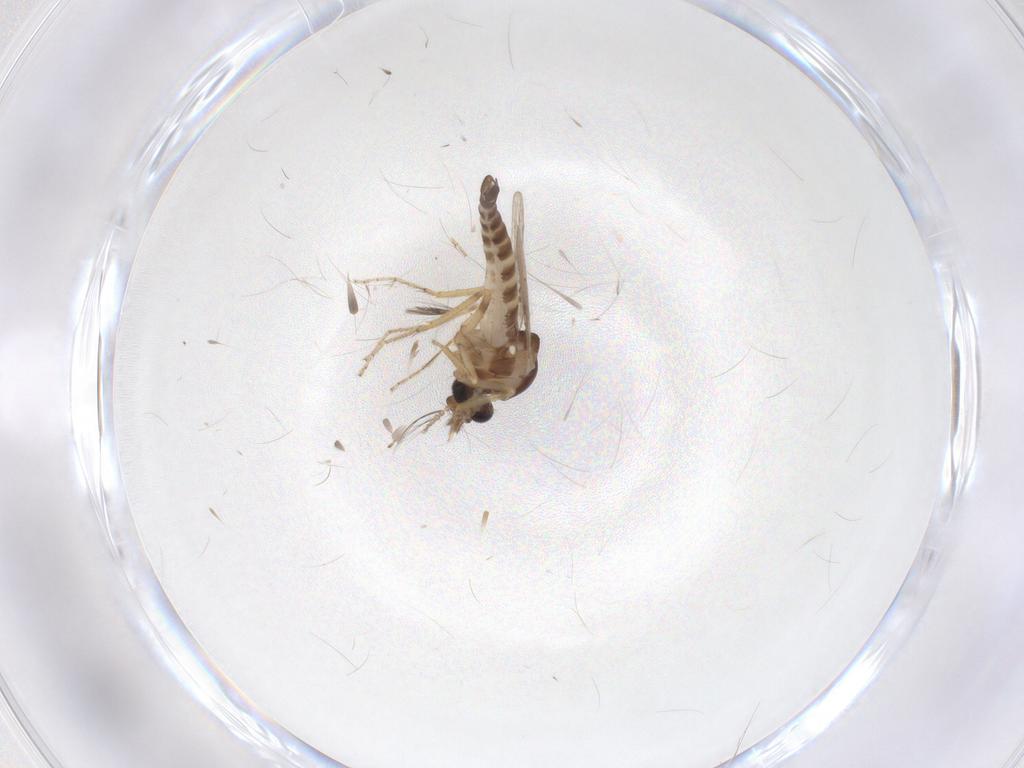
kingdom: Animalia
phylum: Arthropoda
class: Insecta
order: Diptera
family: Ceratopogonidae
